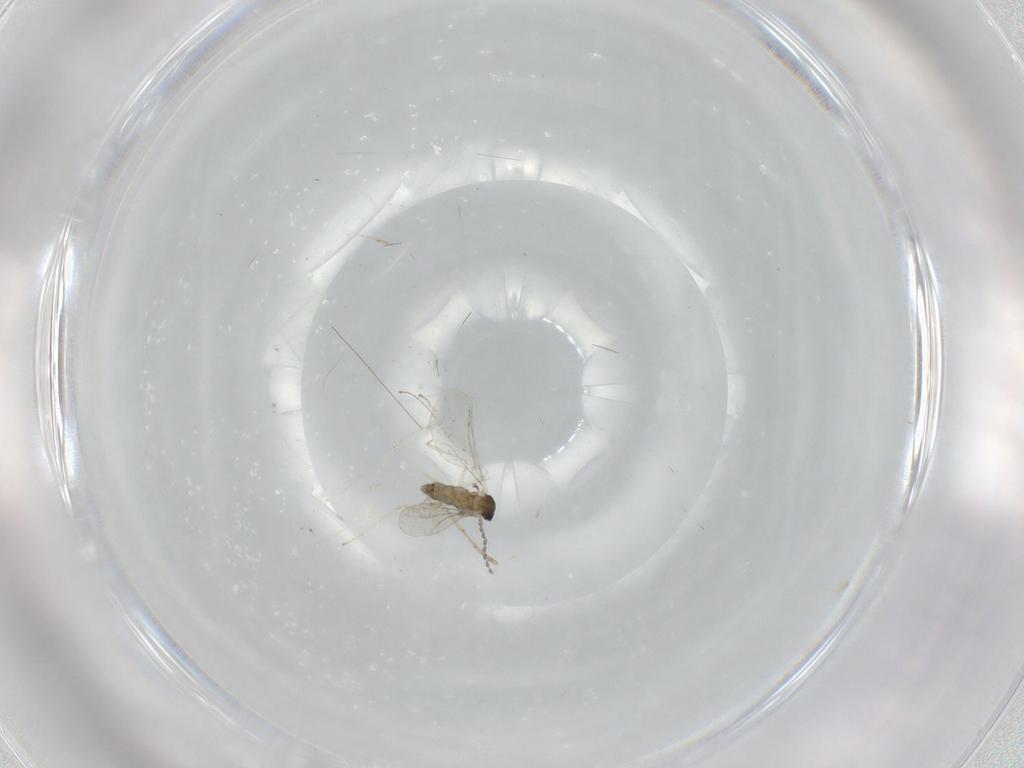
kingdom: Animalia
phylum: Arthropoda
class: Insecta
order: Diptera
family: Cecidomyiidae
